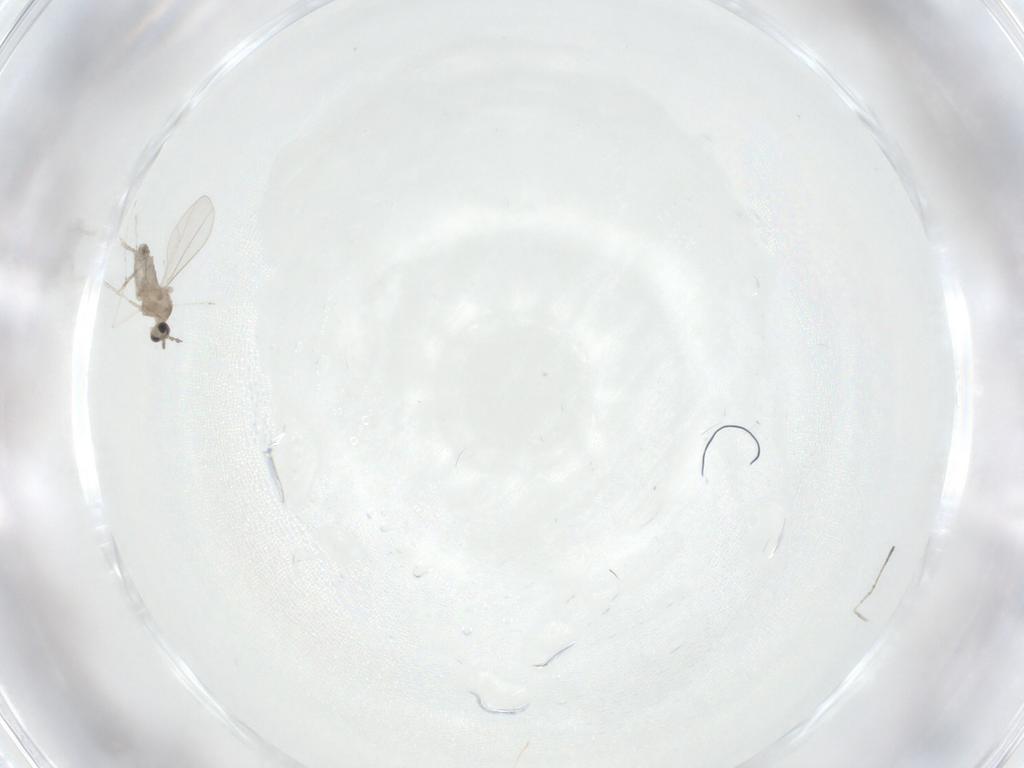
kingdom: Animalia
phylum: Arthropoda
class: Insecta
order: Diptera
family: Cecidomyiidae
